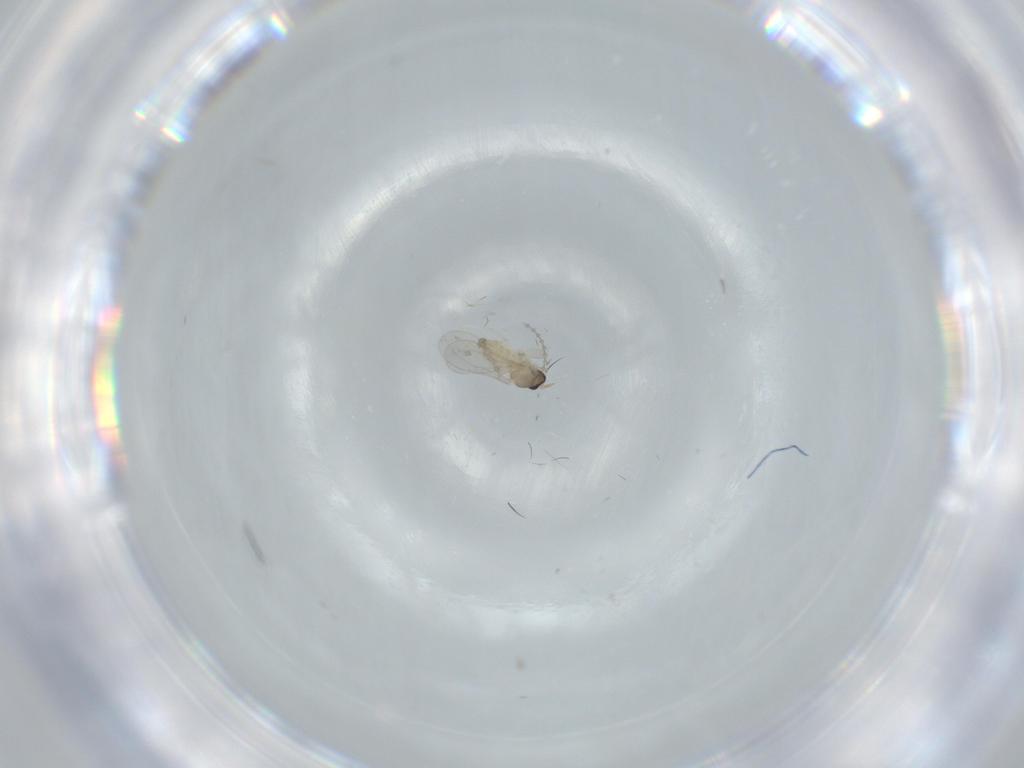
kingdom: Animalia
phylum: Arthropoda
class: Insecta
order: Diptera
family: Cecidomyiidae
